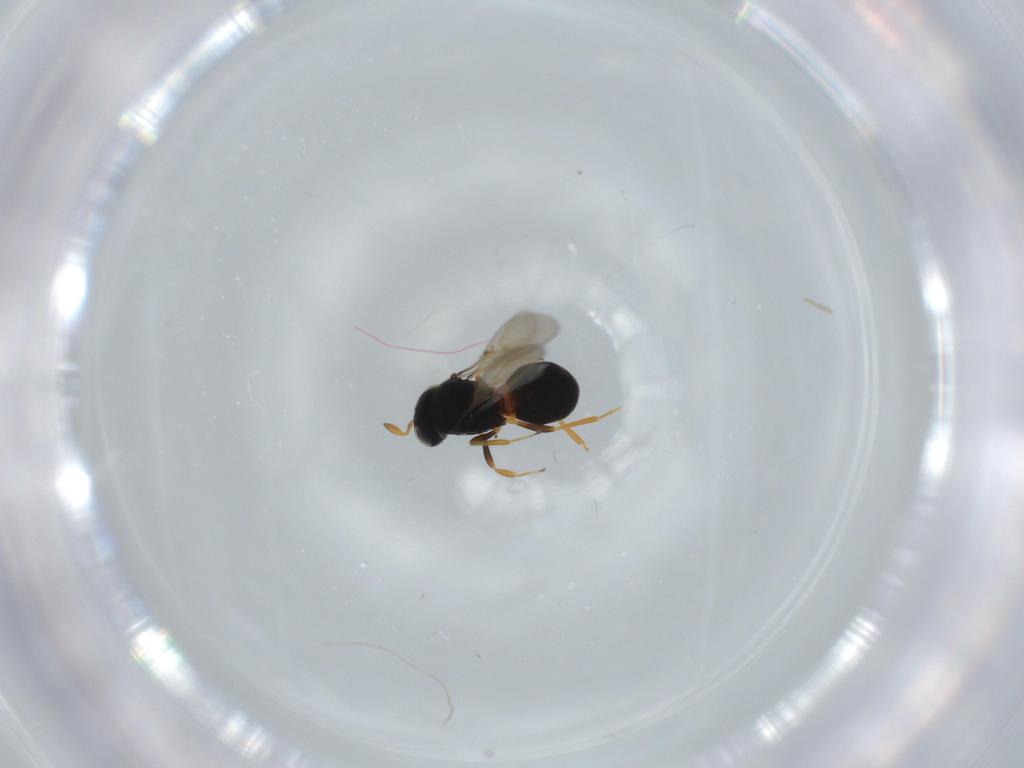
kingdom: Animalia
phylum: Arthropoda
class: Insecta
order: Hymenoptera
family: Scelionidae
